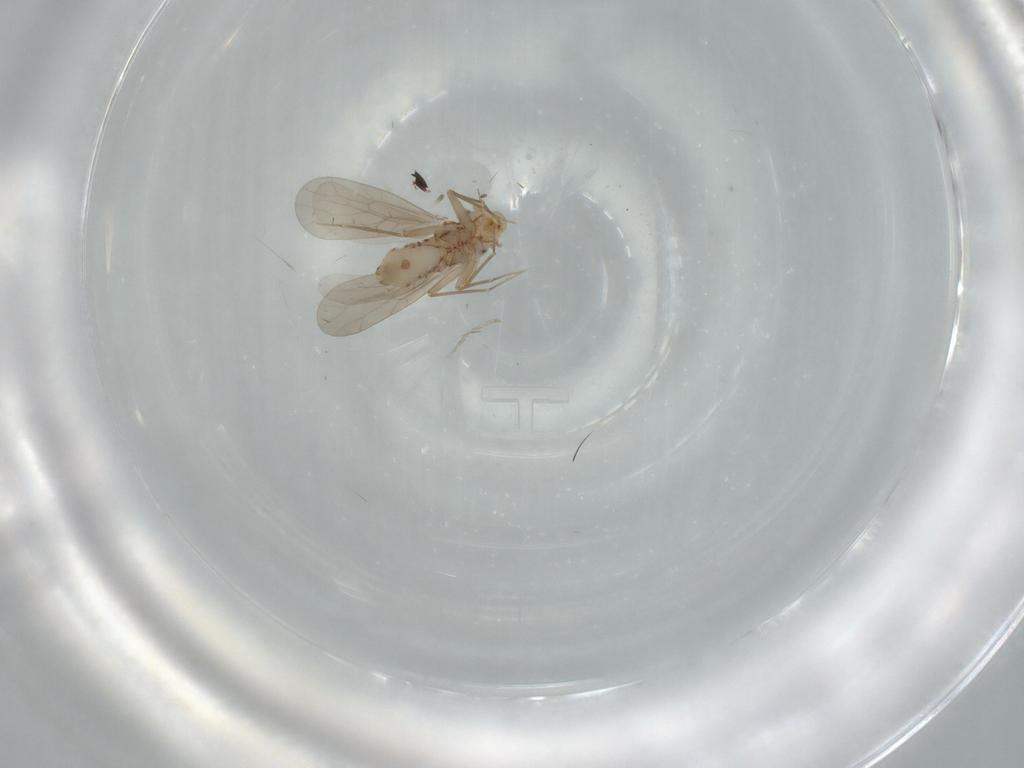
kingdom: Animalia
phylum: Arthropoda
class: Insecta
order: Psocodea
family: Lepidopsocidae
